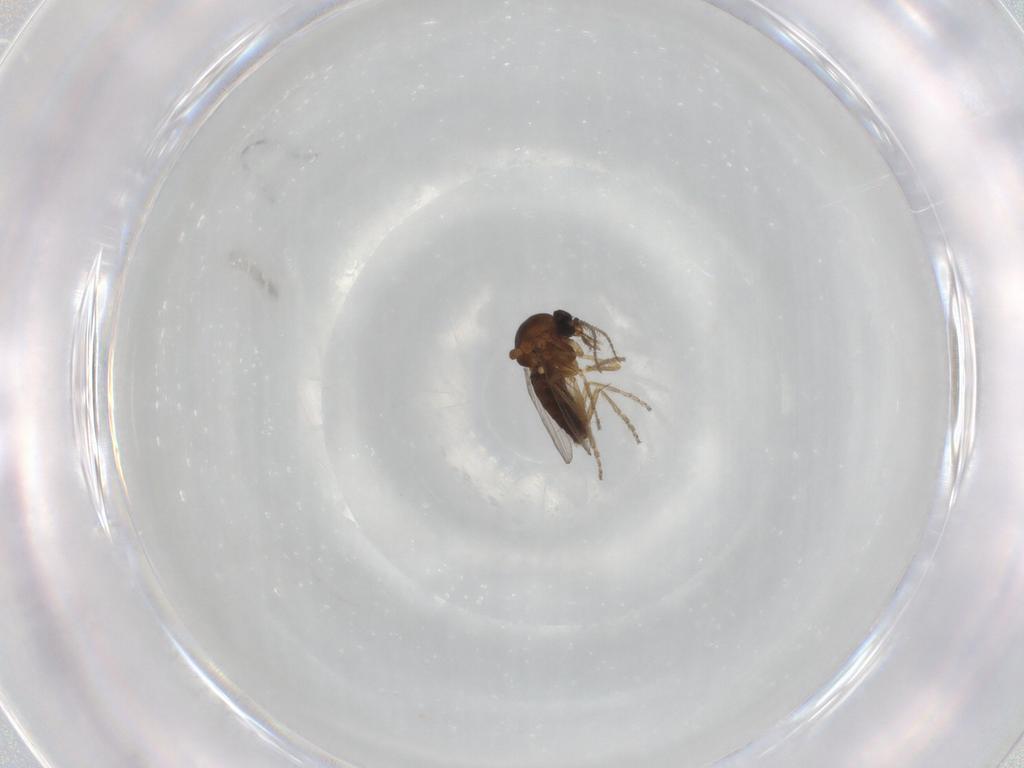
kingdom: Animalia
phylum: Arthropoda
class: Insecta
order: Diptera
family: Ceratopogonidae
